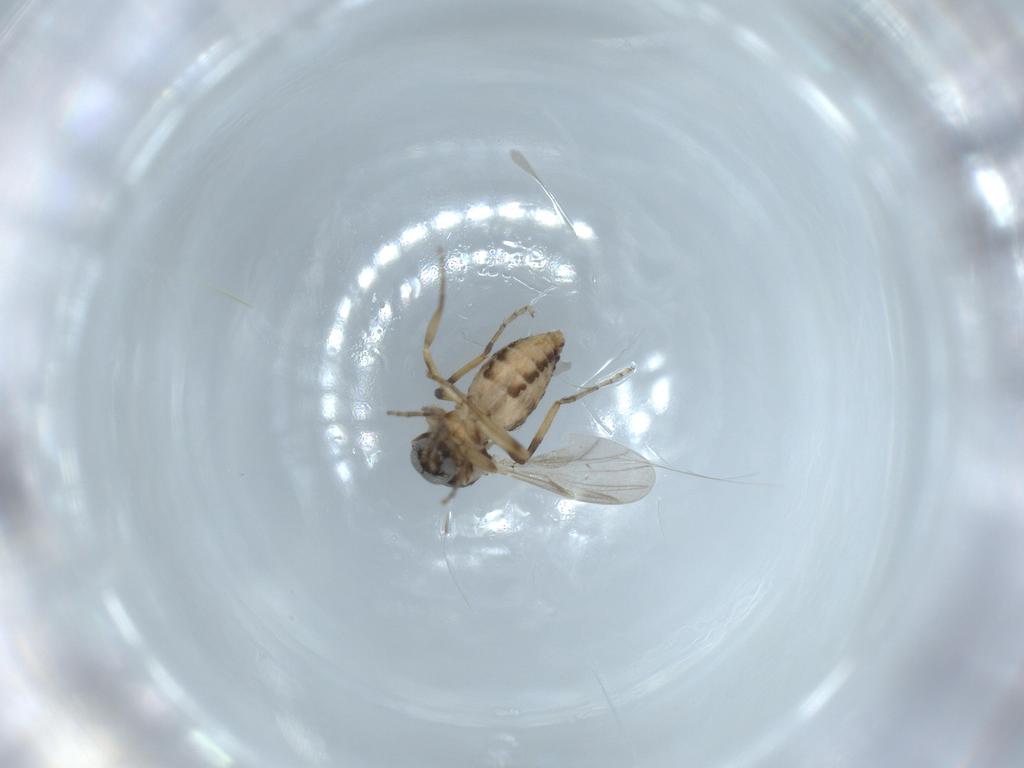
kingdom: Animalia
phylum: Arthropoda
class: Insecta
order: Diptera
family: Ceratopogonidae
